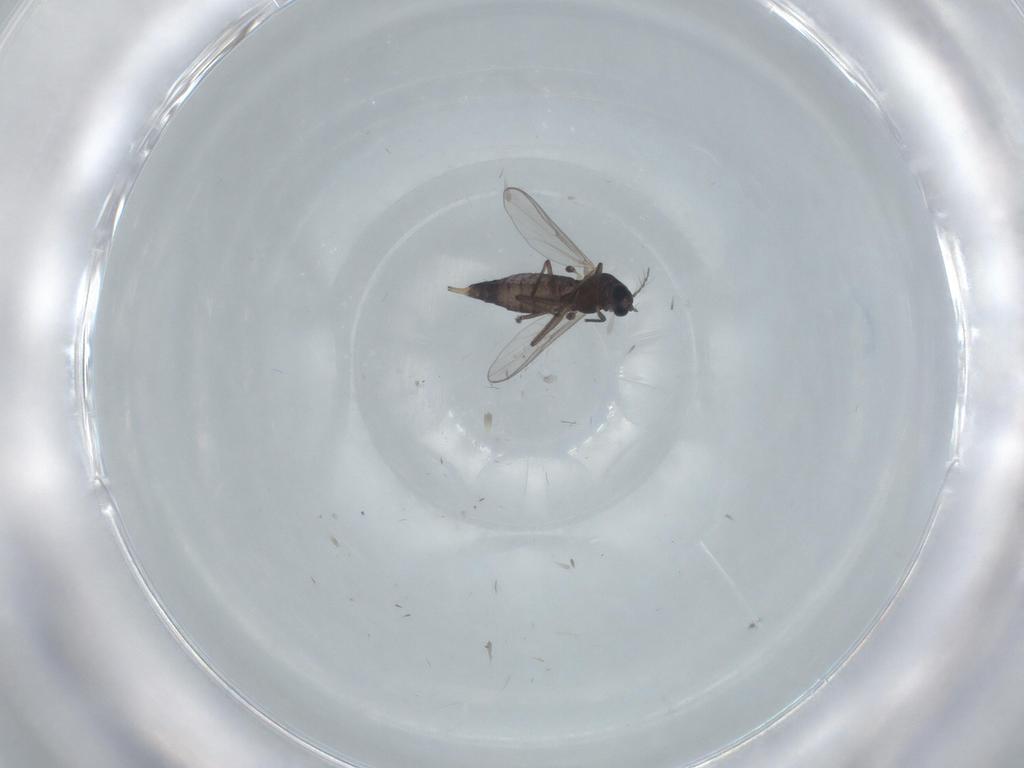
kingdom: Animalia
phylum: Arthropoda
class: Insecta
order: Diptera
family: Chironomidae
